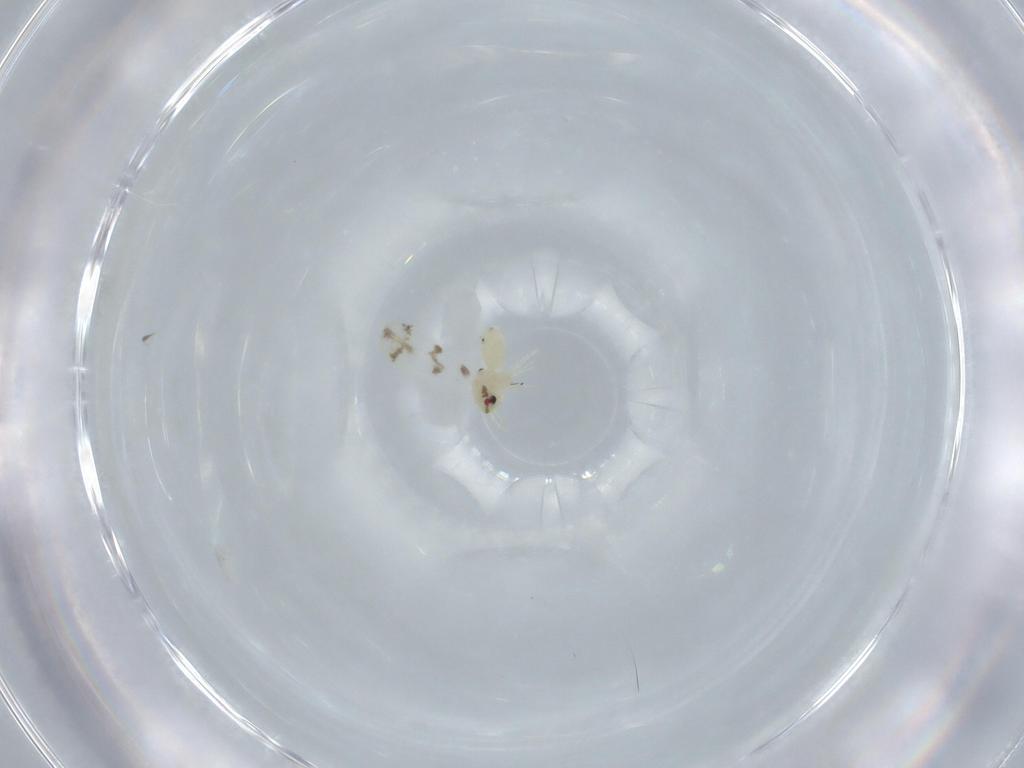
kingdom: Animalia
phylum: Arthropoda
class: Insecta
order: Hemiptera
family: Aleyrodidae
